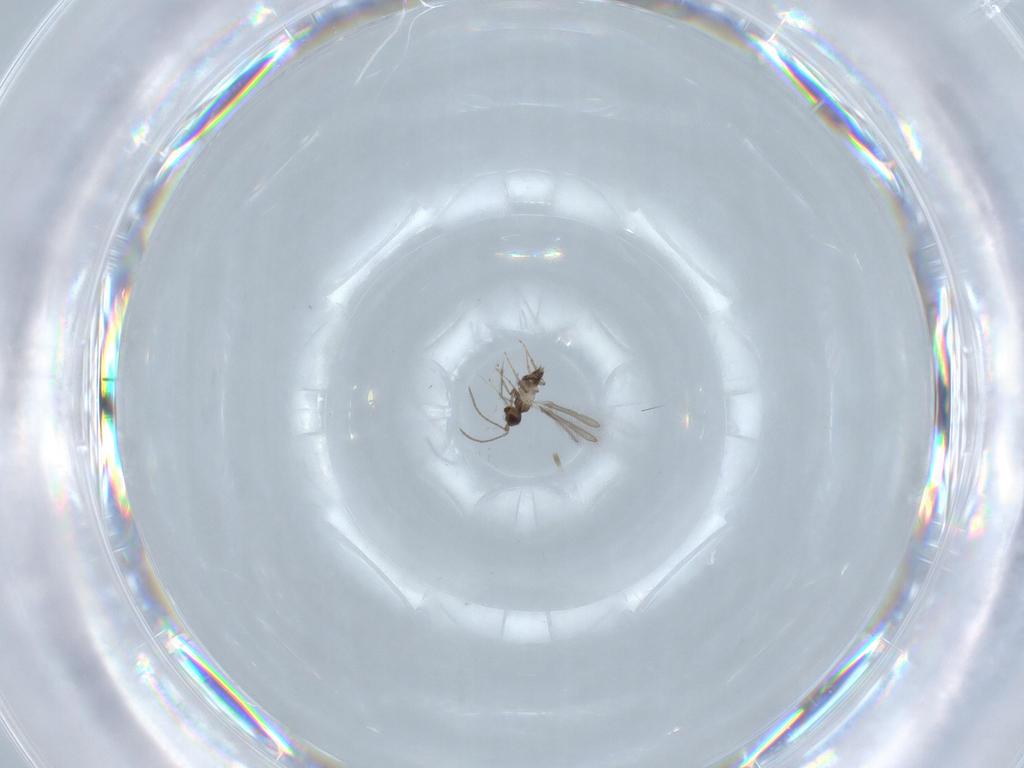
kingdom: Animalia
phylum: Arthropoda
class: Insecta
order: Hymenoptera
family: Mymaridae
